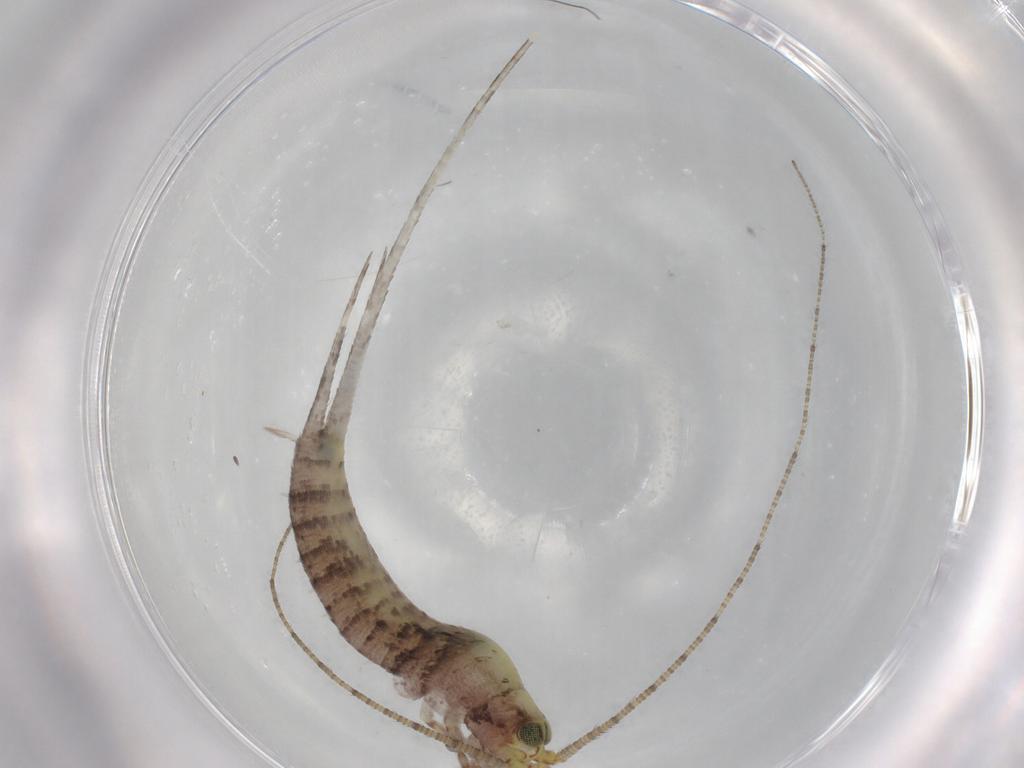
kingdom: Animalia
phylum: Arthropoda
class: Insecta
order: Archaeognatha
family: Machilidae
